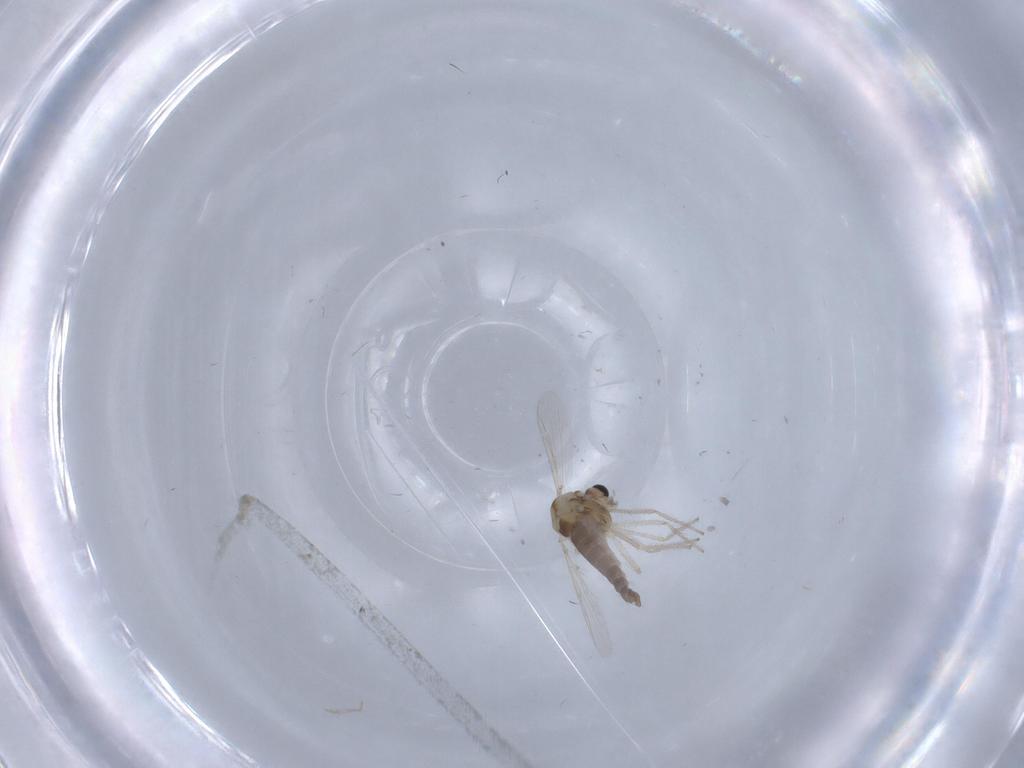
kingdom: Animalia
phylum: Arthropoda
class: Insecta
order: Diptera
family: Chironomidae
